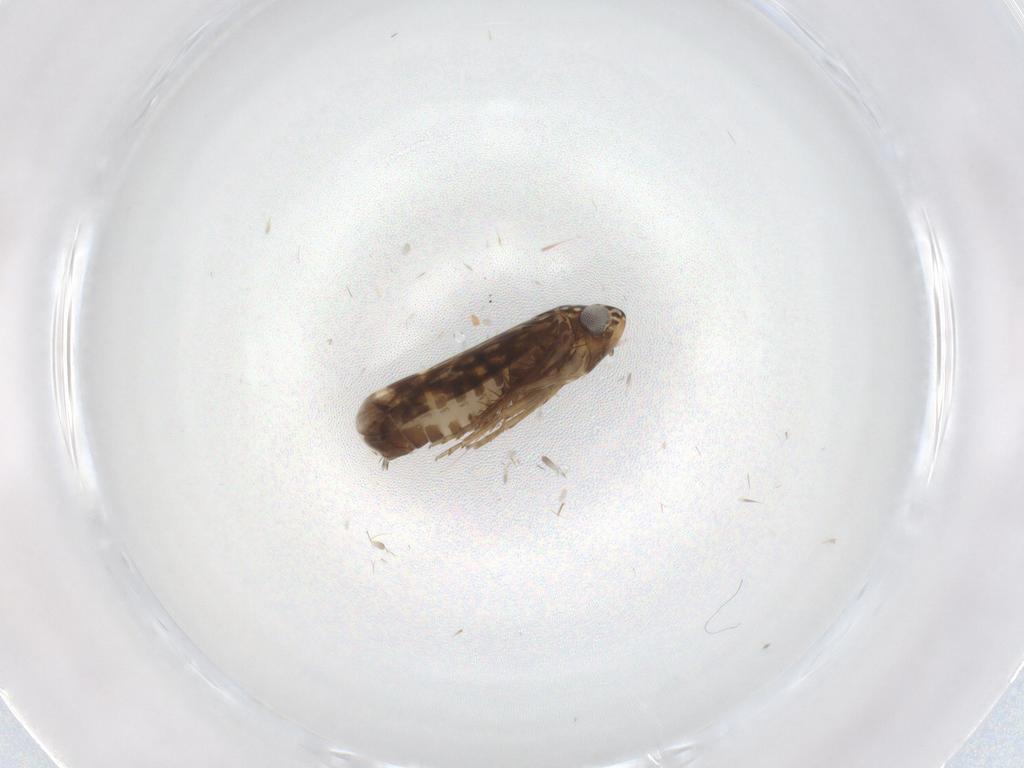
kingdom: Animalia
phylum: Arthropoda
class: Insecta
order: Hemiptera
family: Cicadellidae
